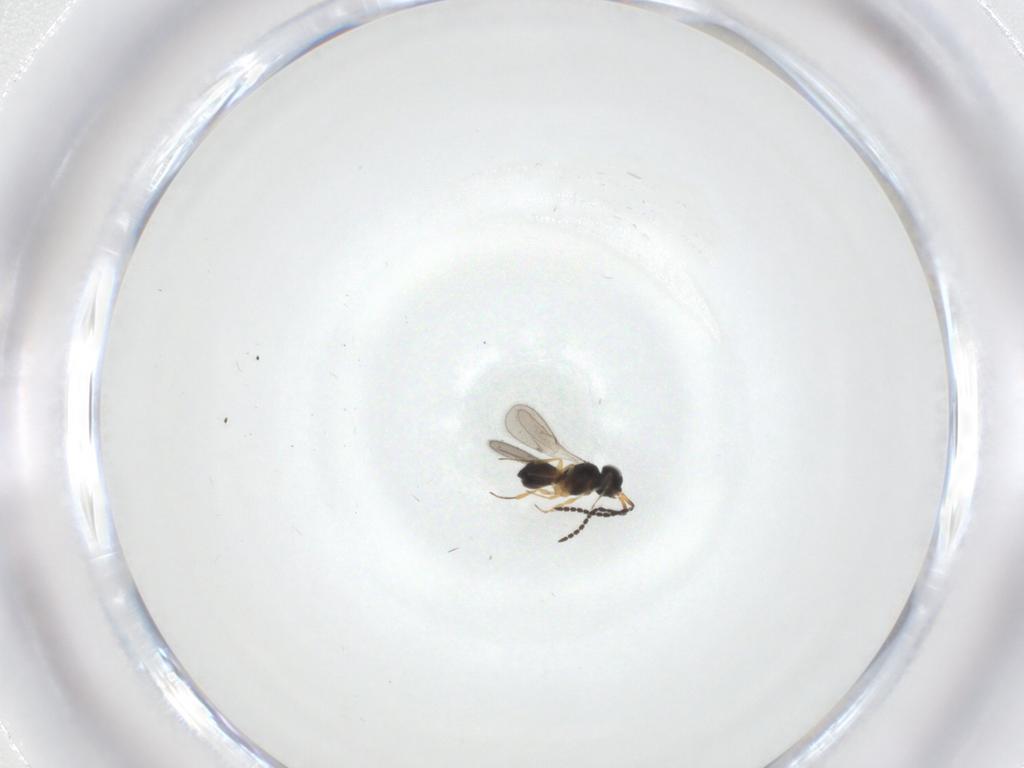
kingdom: Animalia
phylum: Arthropoda
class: Insecta
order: Hymenoptera
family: Scelionidae
